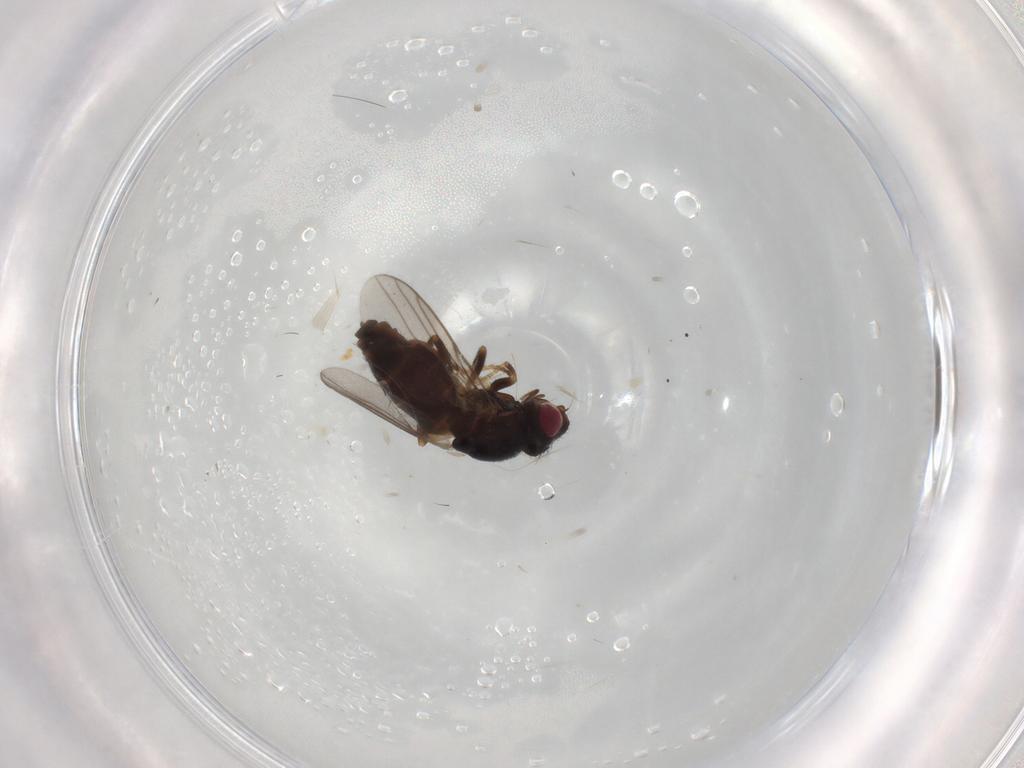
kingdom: Animalia
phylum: Arthropoda
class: Insecta
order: Diptera
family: Chloropidae
